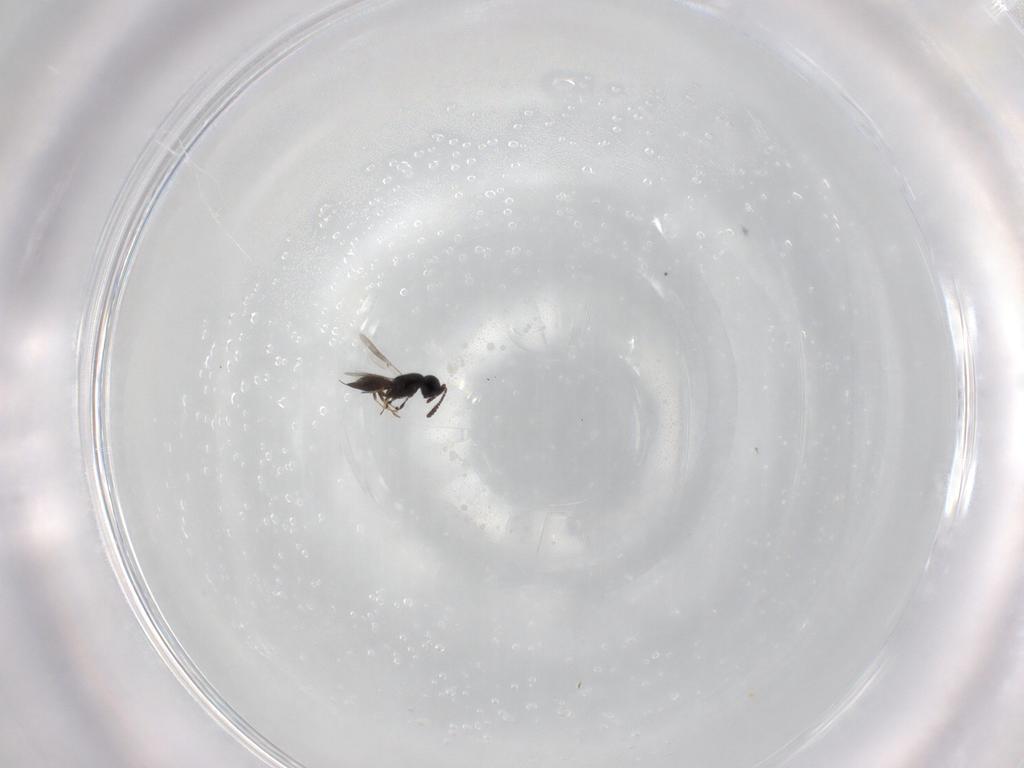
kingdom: Animalia
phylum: Arthropoda
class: Insecta
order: Hymenoptera
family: Scelionidae
